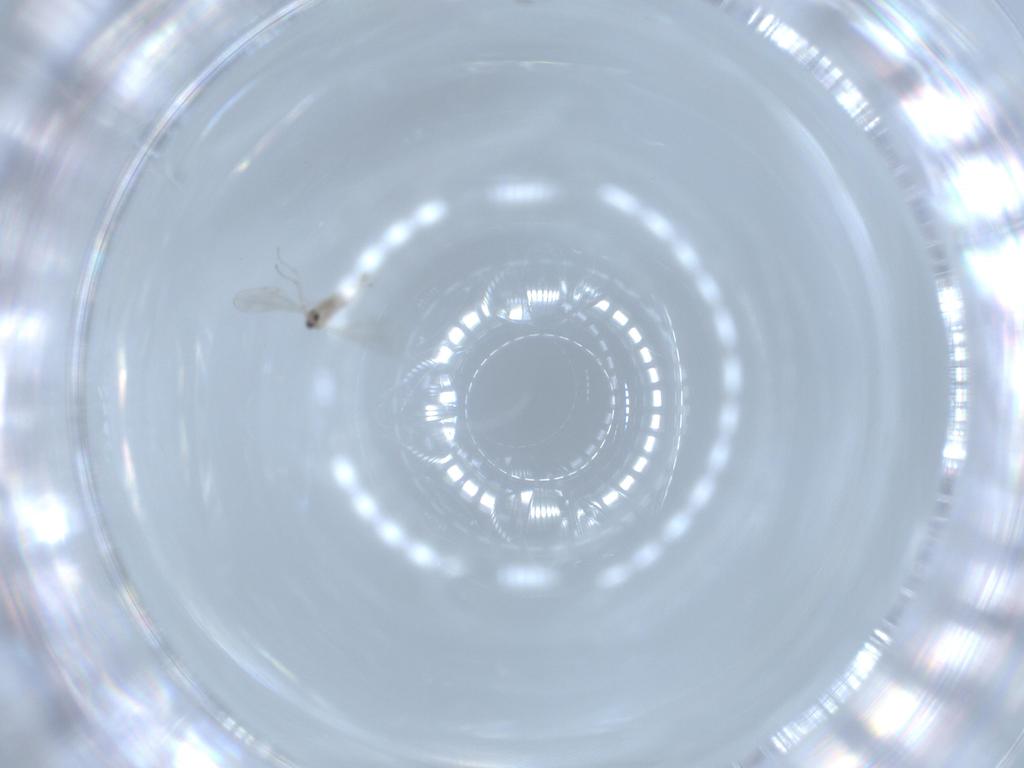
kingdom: Animalia
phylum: Arthropoda
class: Insecta
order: Diptera
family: Cecidomyiidae
